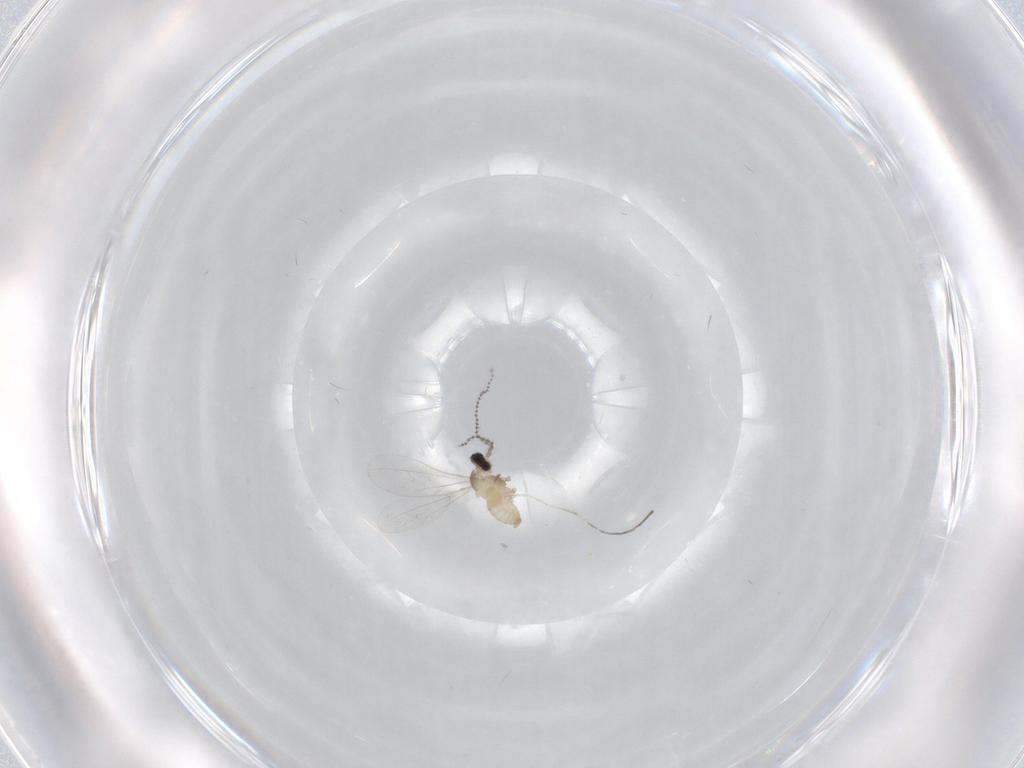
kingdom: Animalia
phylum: Arthropoda
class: Insecta
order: Diptera
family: Cecidomyiidae
